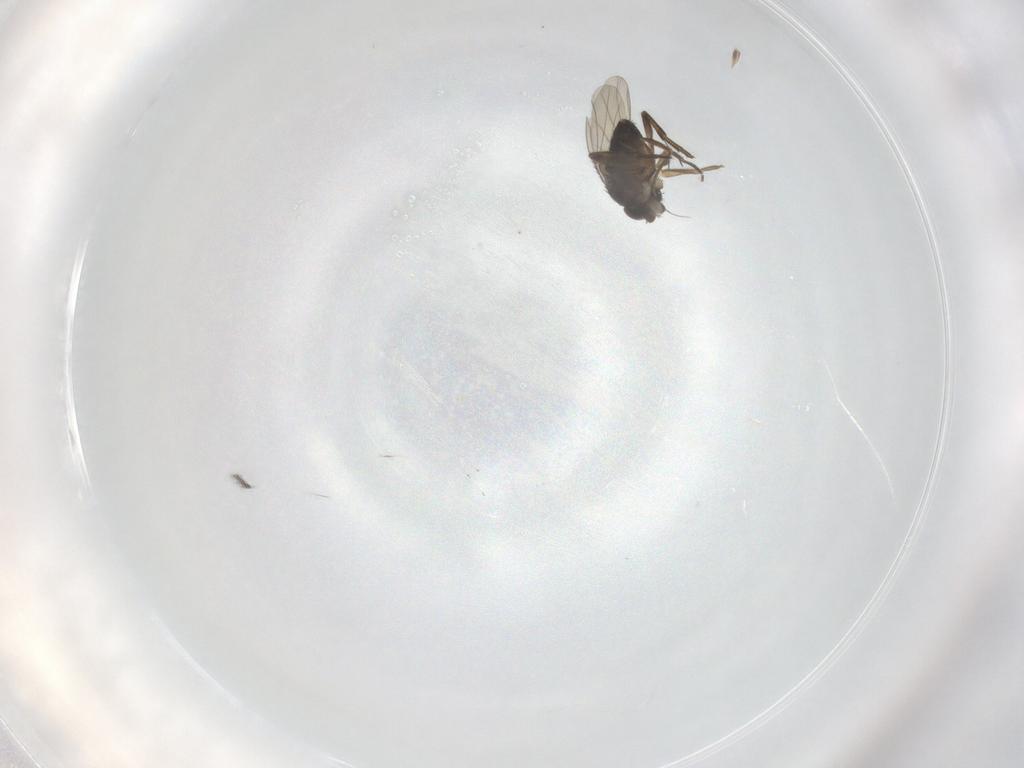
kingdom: Animalia
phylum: Arthropoda
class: Insecta
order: Diptera
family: Phoridae
